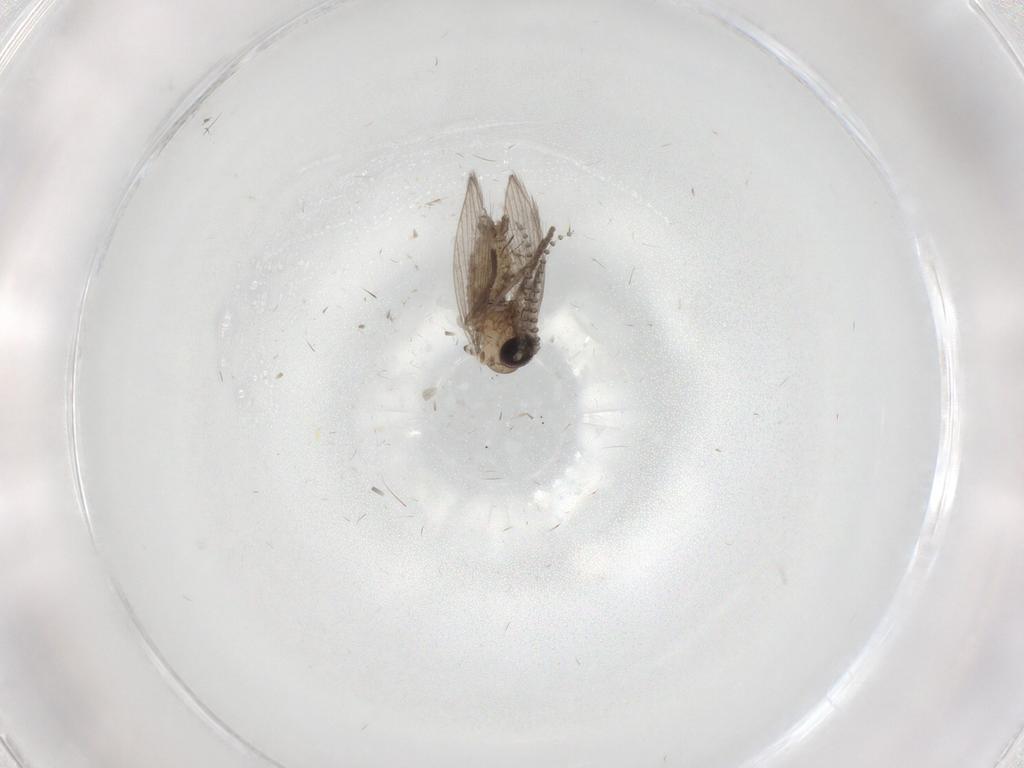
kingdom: Animalia
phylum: Arthropoda
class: Insecta
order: Diptera
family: Psychodidae
